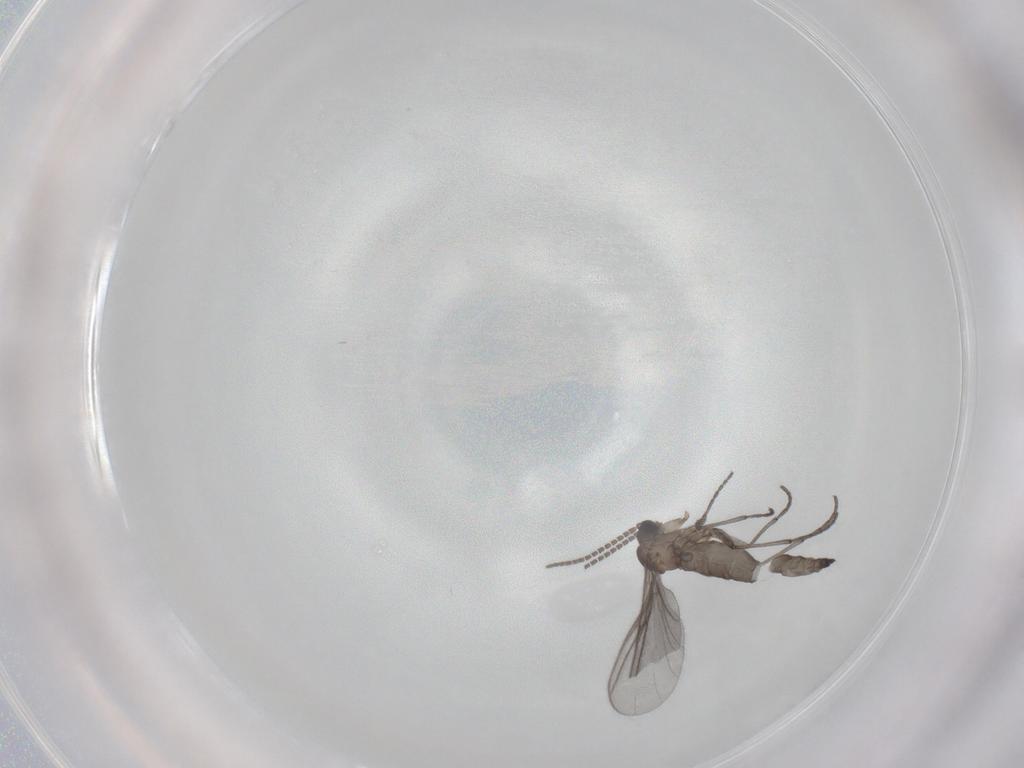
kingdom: Animalia
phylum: Arthropoda
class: Insecta
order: Diptera
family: Sciaridae
